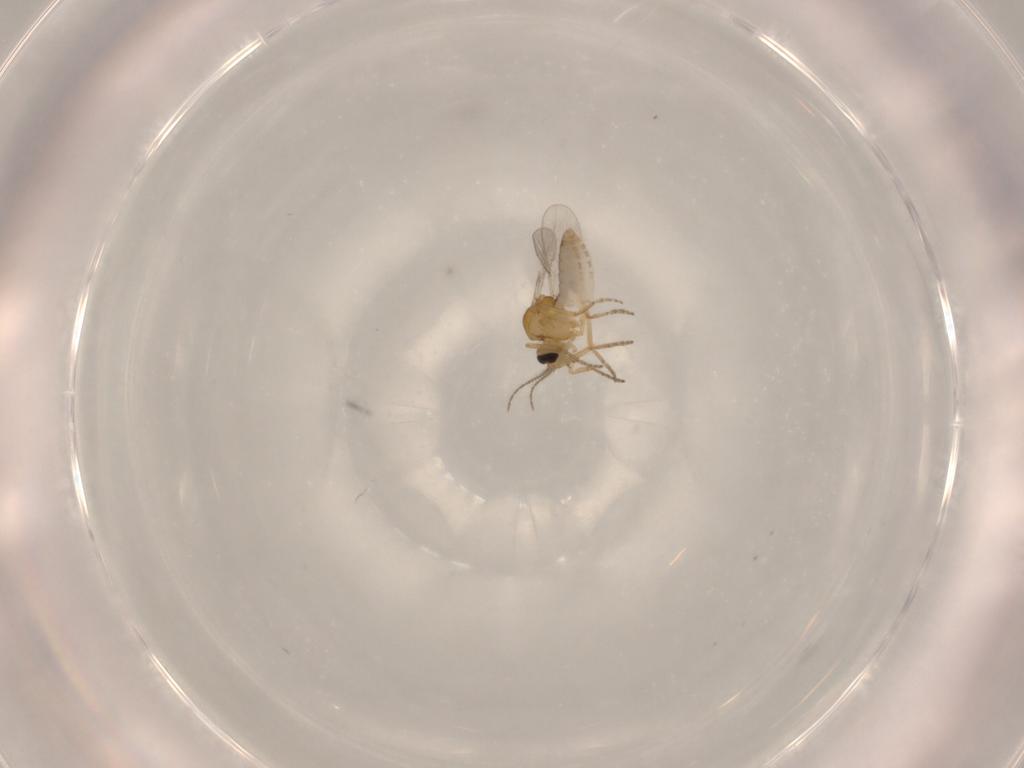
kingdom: Animalia
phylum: Arthropoda
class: Insecta
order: Diptera
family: Ceratopogonidae
